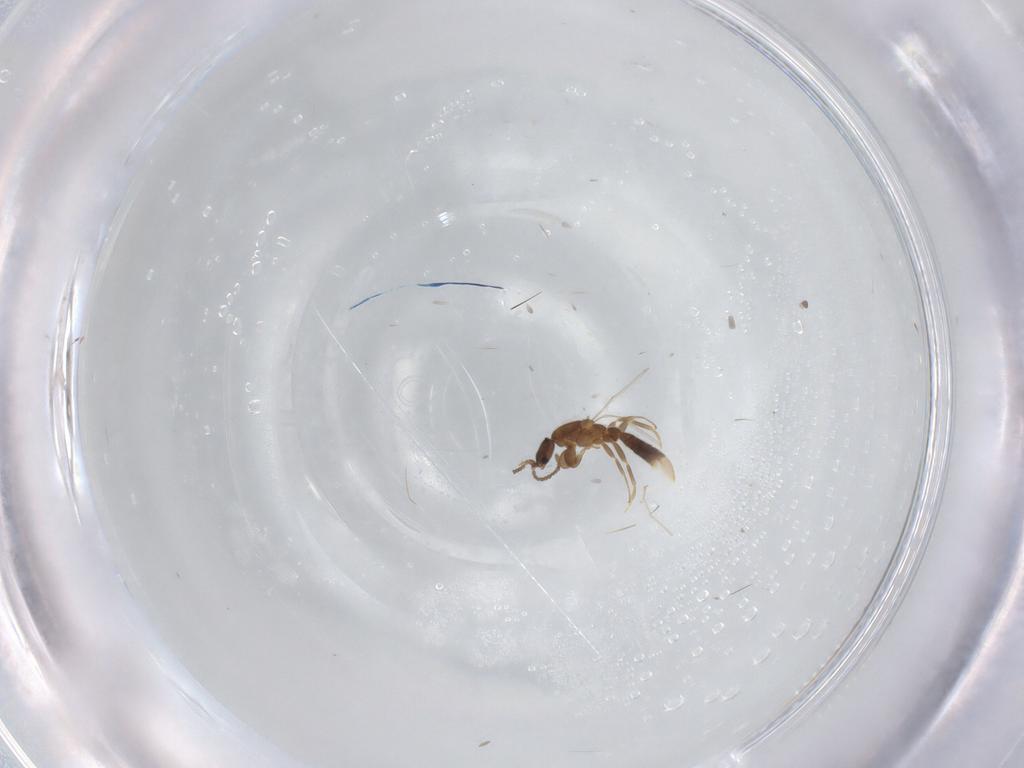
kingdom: Animalia
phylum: Arthropoda
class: Insecta
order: Hymenoptera
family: Formicidae
